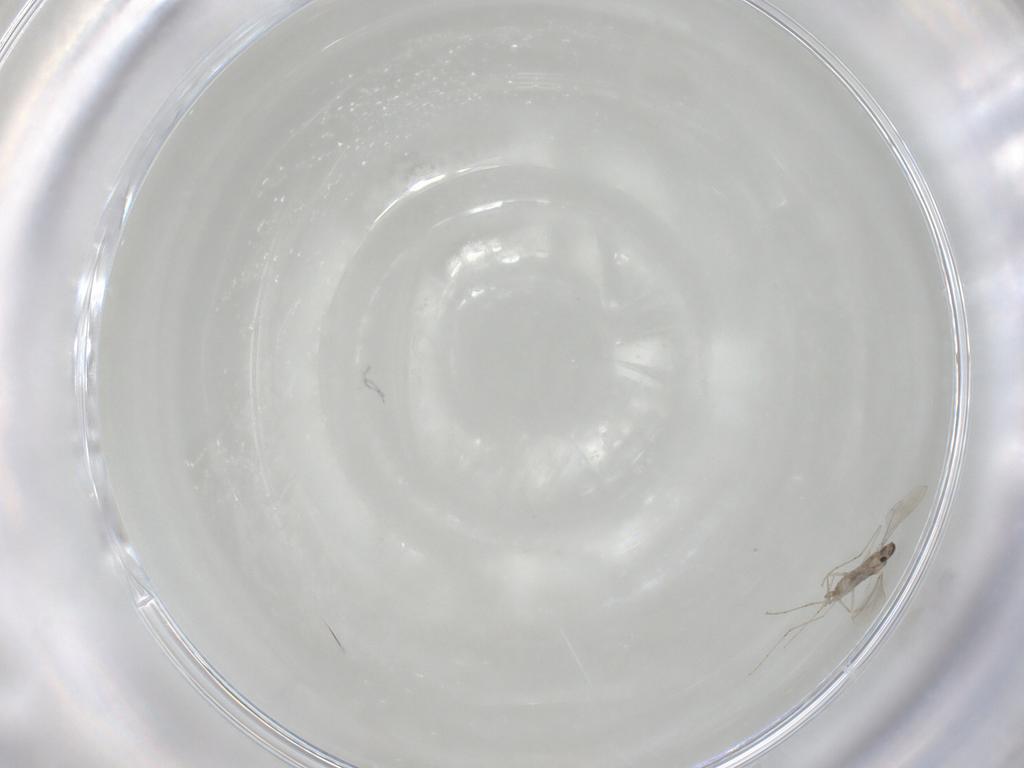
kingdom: Animalia
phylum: Arthropoda
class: Insecta
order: Diptera
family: Cecidomyiidae
